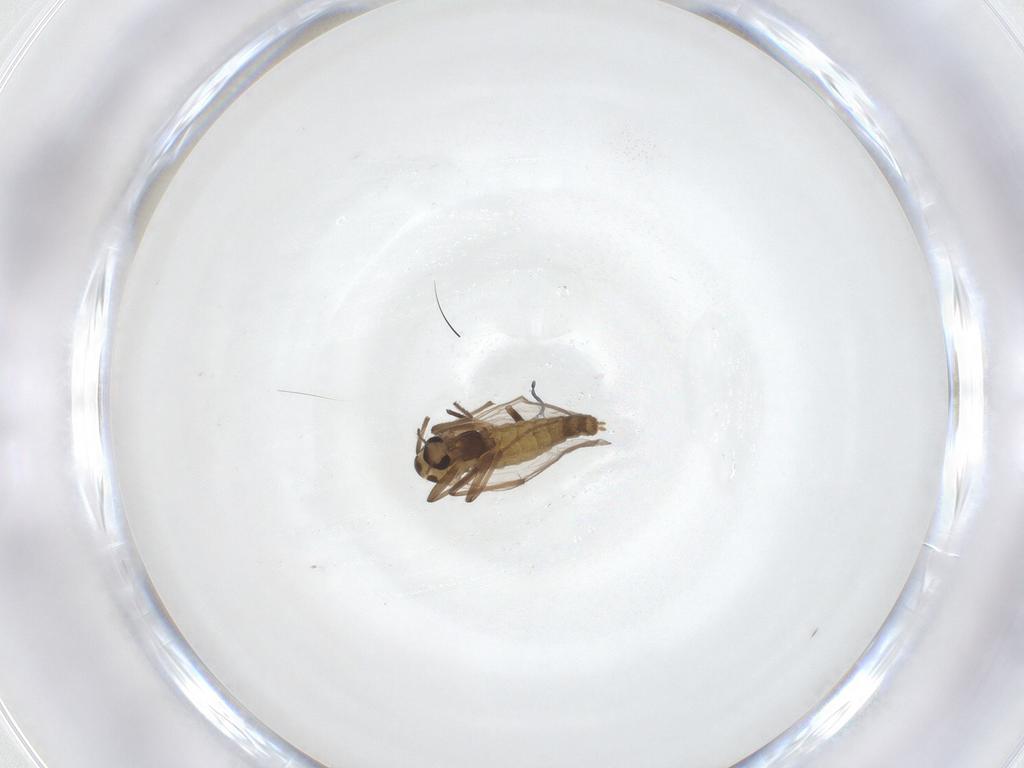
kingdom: Animalia
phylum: Arthropoda
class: Insecta
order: Diptera
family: Chironomidae
